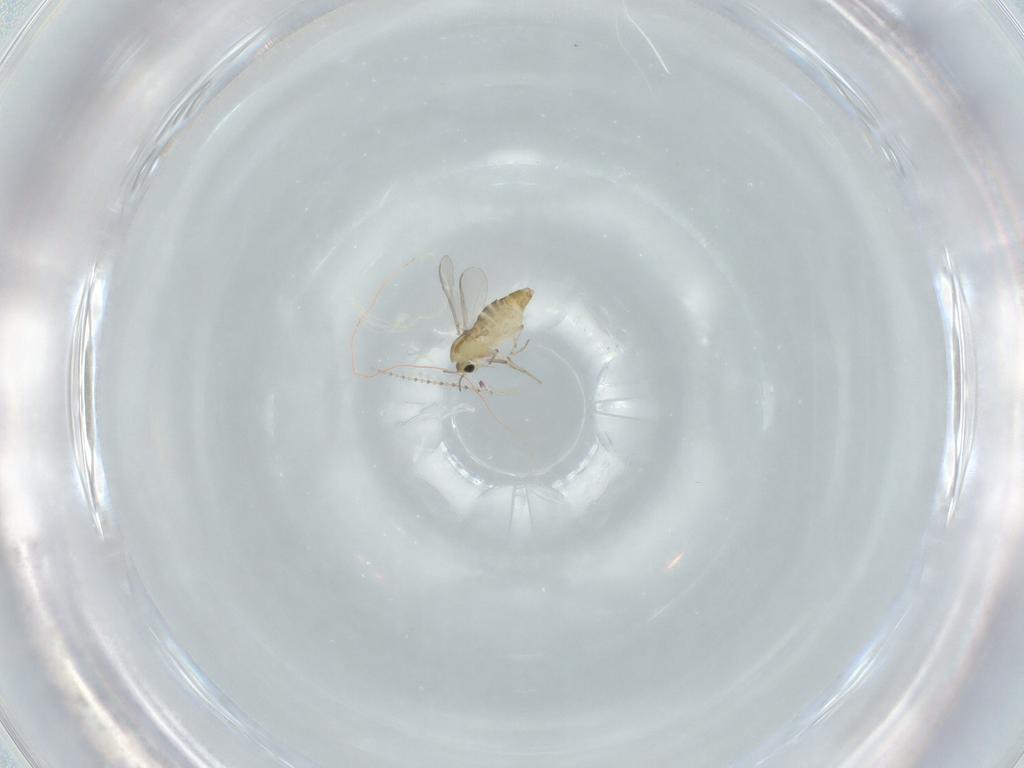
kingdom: Animalia
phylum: Arthropoda
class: Insecta
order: Diptera
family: Chironomidae
